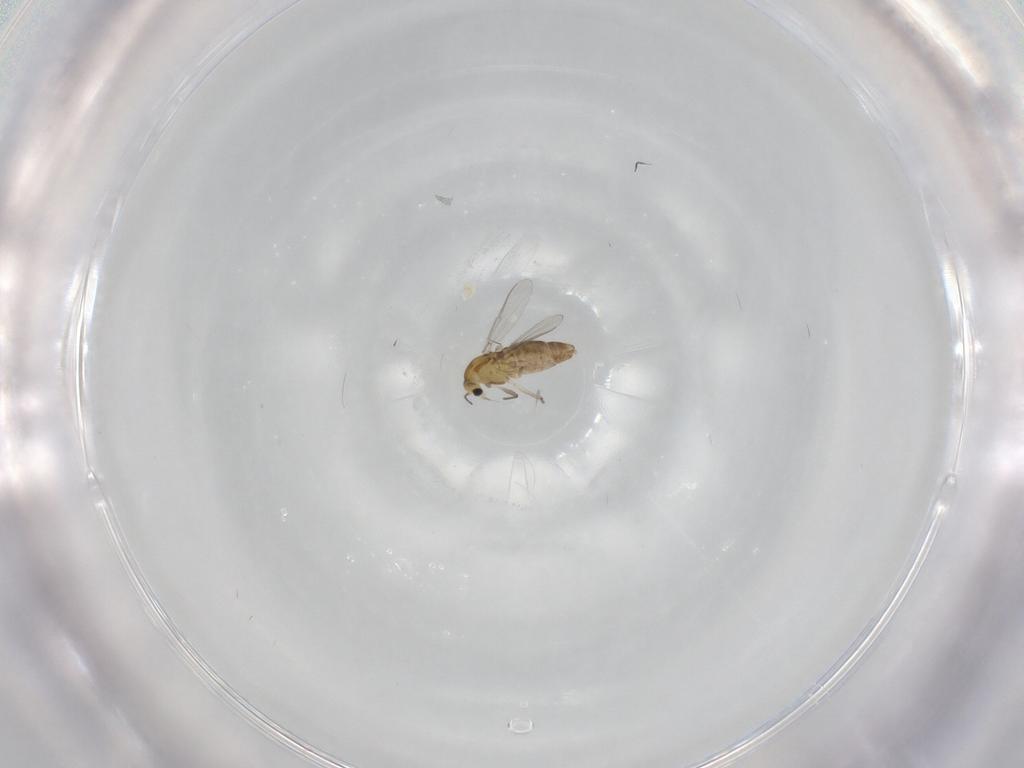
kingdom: Animalia
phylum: Arthropoda
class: Insecta
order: Diptera
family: Chironomidae
